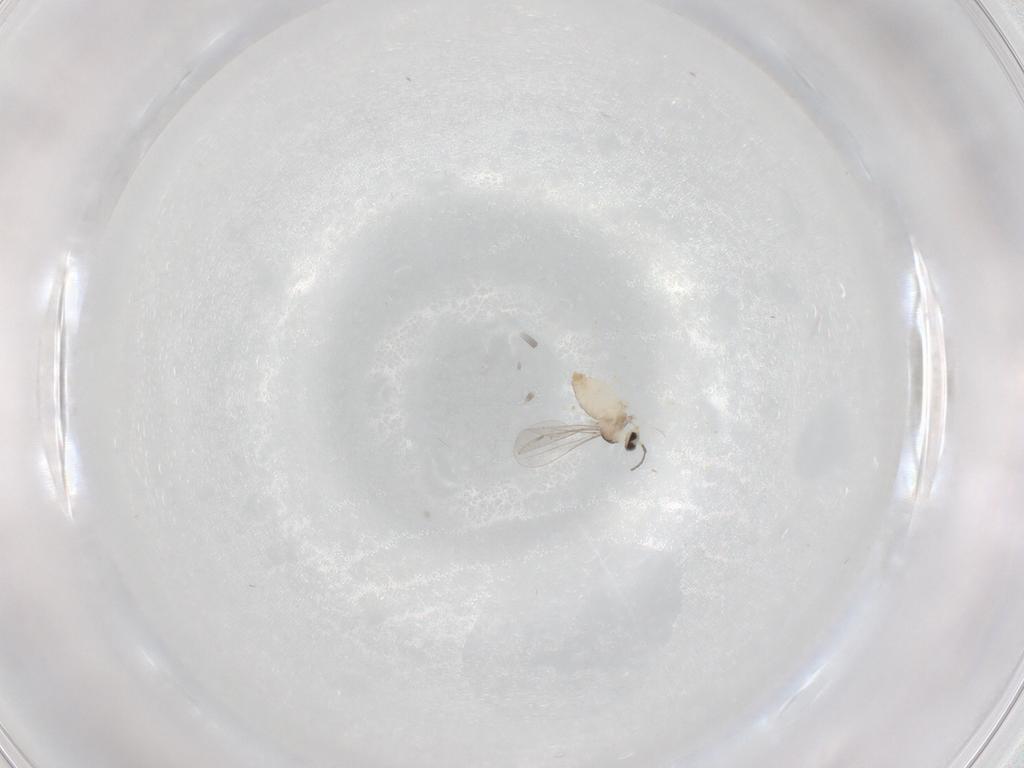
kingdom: Animalia
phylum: Arthropoda
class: Insecta
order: Diptera
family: Cecidomyiidae
